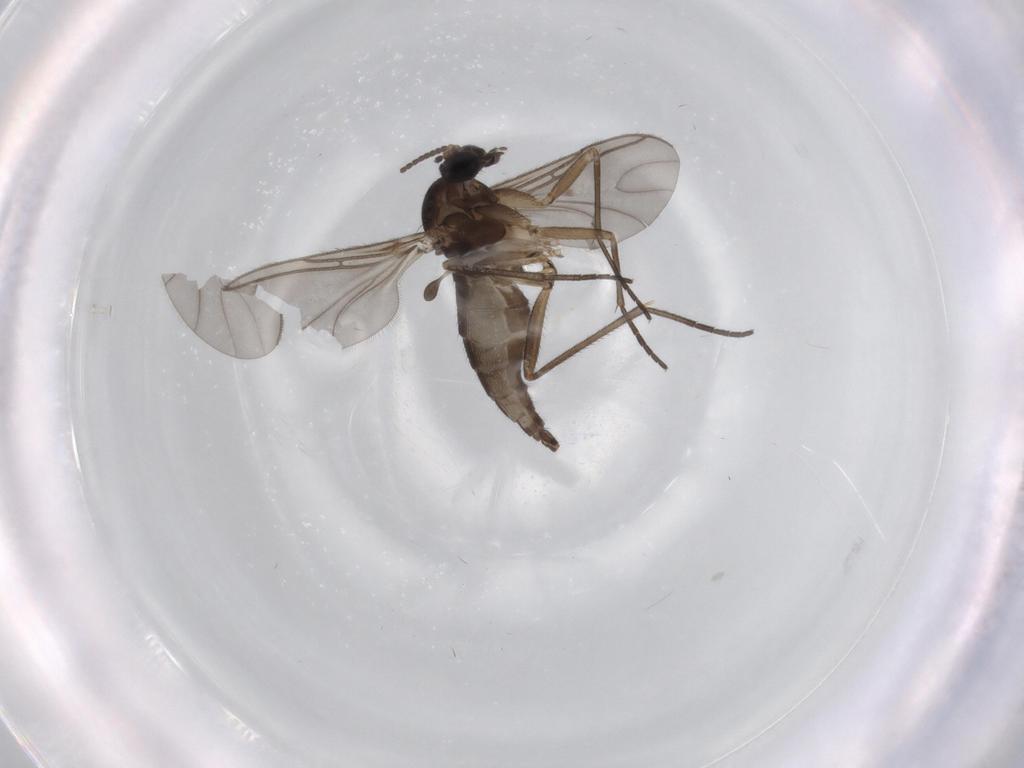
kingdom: Animalia
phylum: Arthropoda
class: Insecta
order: Diptera
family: Sciaridae
